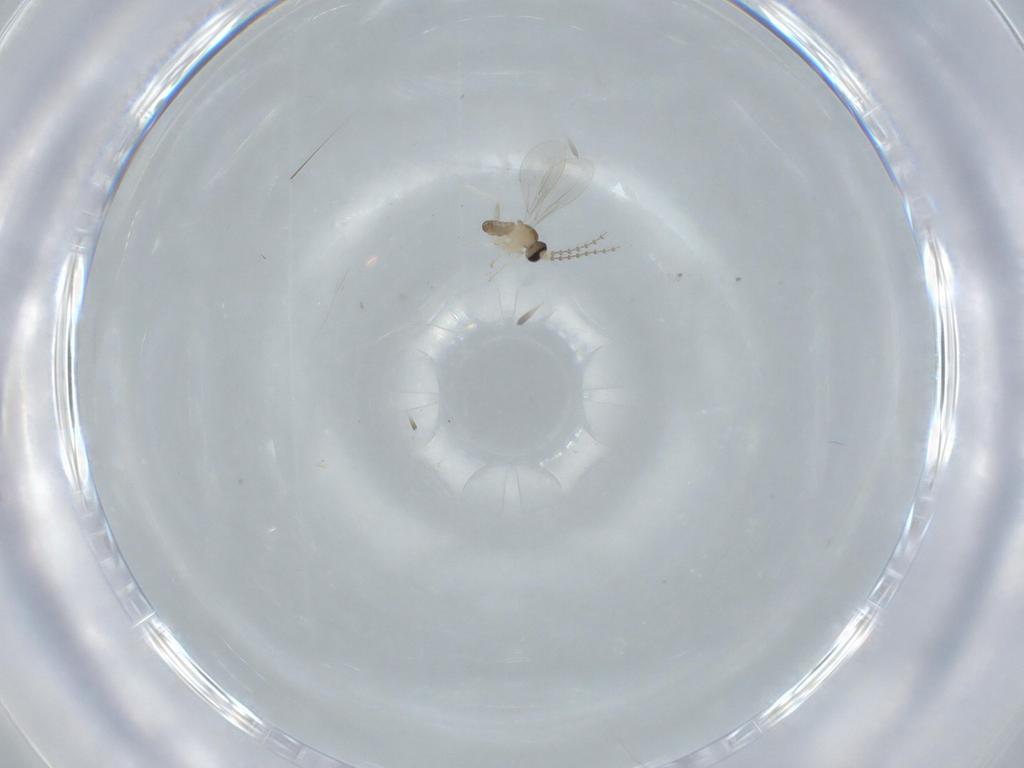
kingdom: Animalia
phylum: Arthropoda
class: Insecta
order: Diptera
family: Cecidomyiidae
